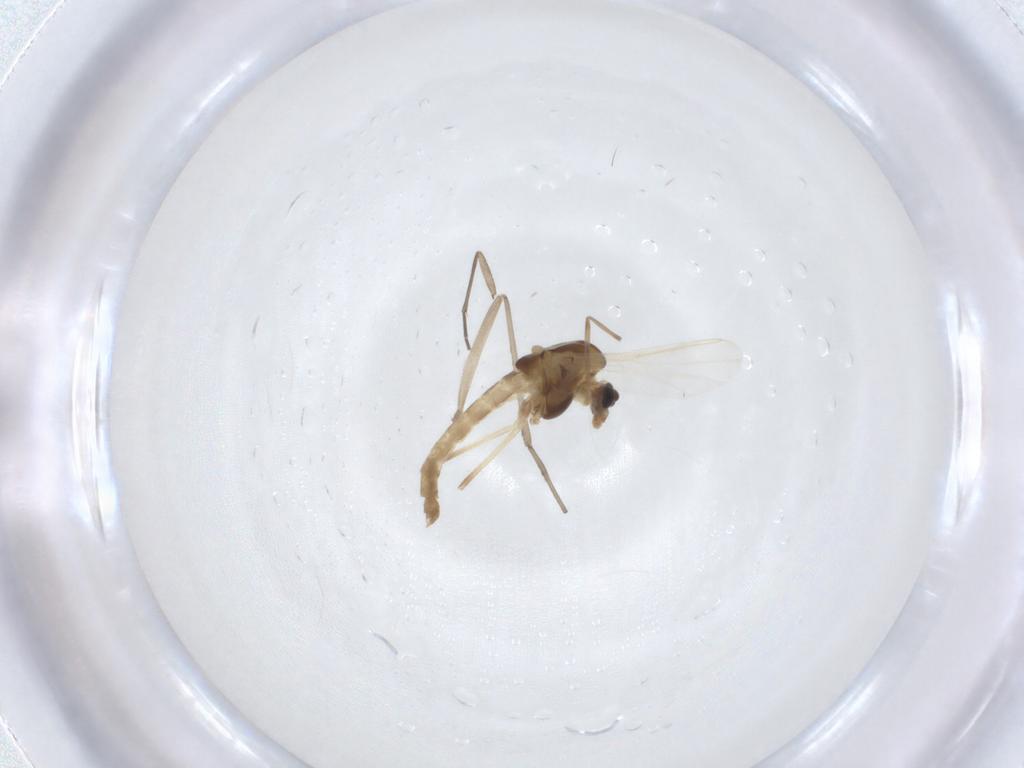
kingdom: Animalia
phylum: Arthropoda
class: Insecta
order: Diptera
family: Chironomidae
